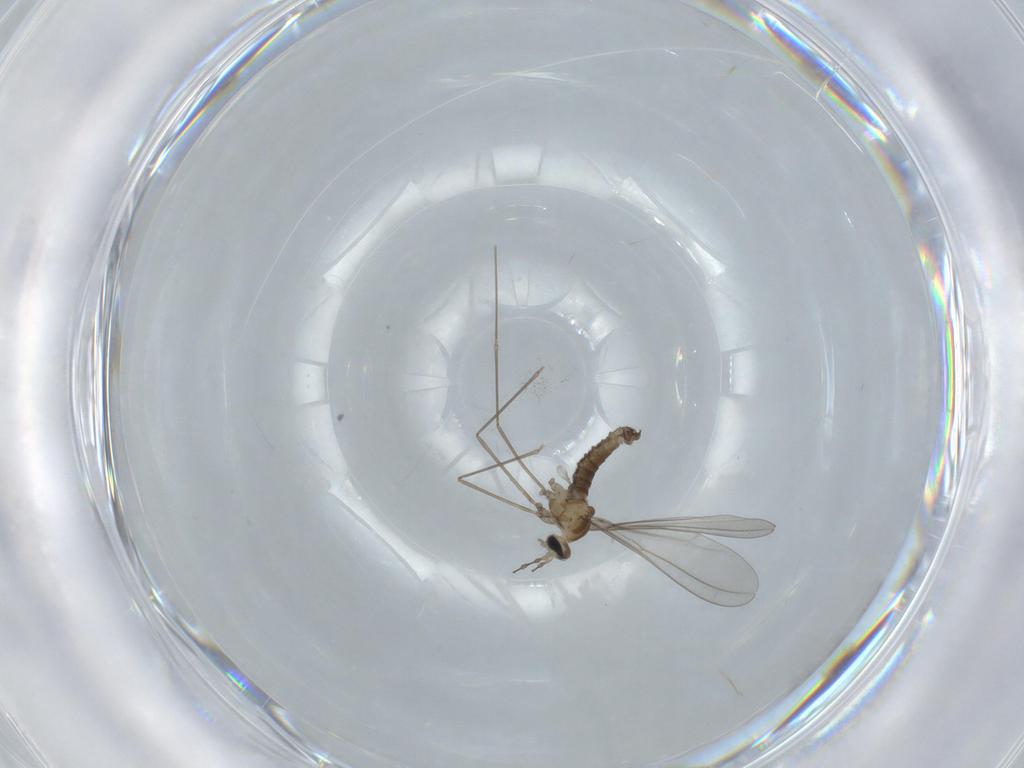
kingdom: Animalia
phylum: Arthropoda
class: Insecta
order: Diptera
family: Cecidomyiidae
